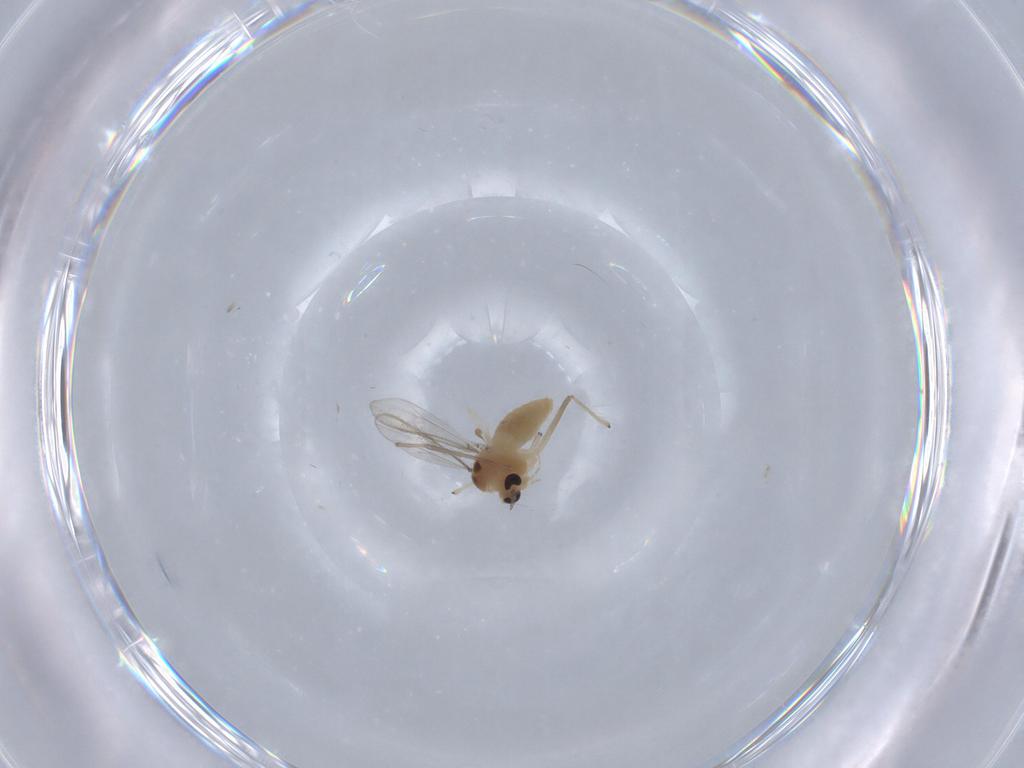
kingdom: Animalia
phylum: Arthropoda
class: Insecta
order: Diptera
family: Chironomidae
